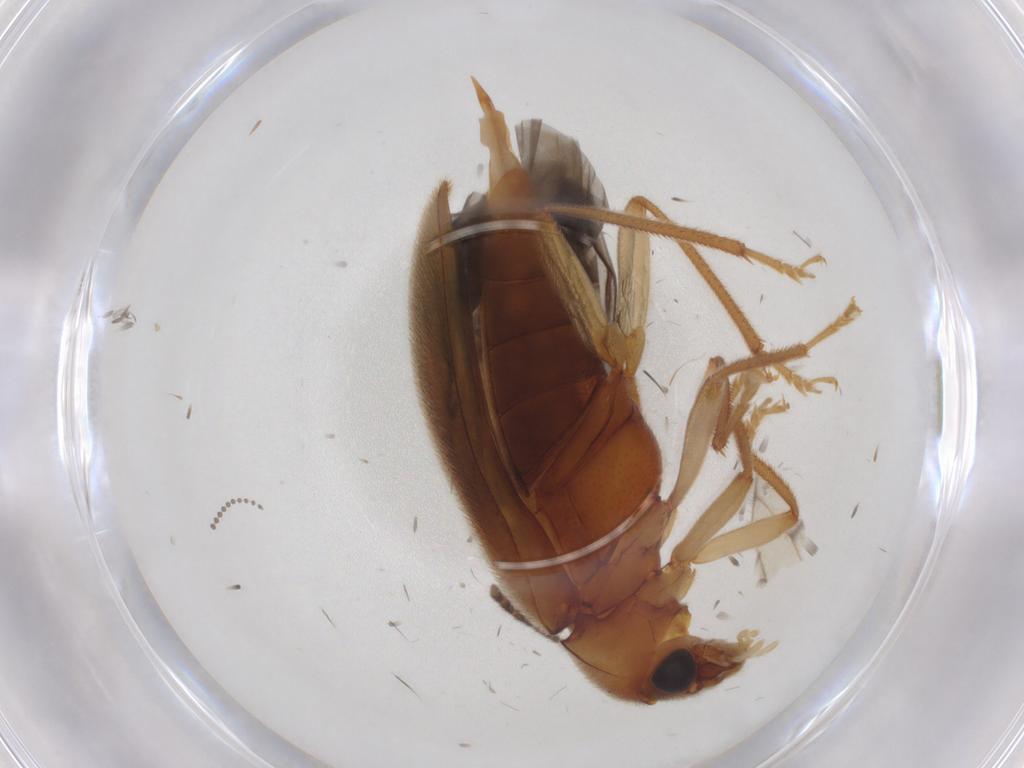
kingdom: Animalia
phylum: Arthropoda
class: Insecta
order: Coleoptera
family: Ptilodactylidae
